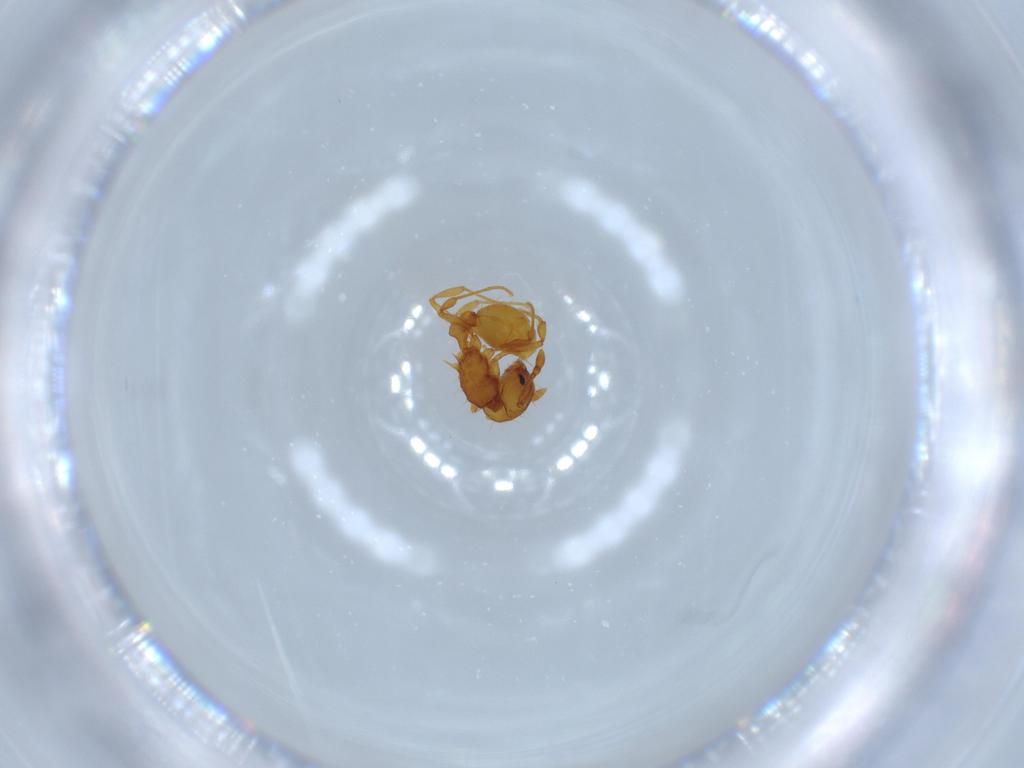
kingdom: Animalia
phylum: Arthropoda
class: Insecta
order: Hymenoptera
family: Formicidae
